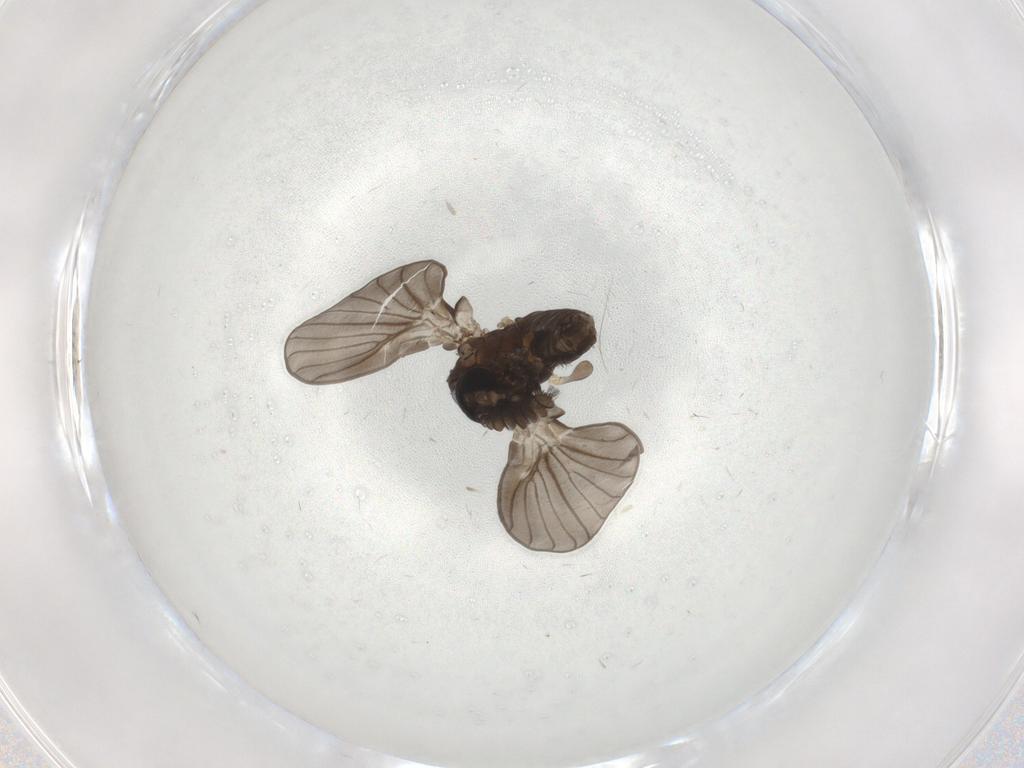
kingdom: Animalia
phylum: Arthropoda
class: Insecta
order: Diptera
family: Psychodidae
